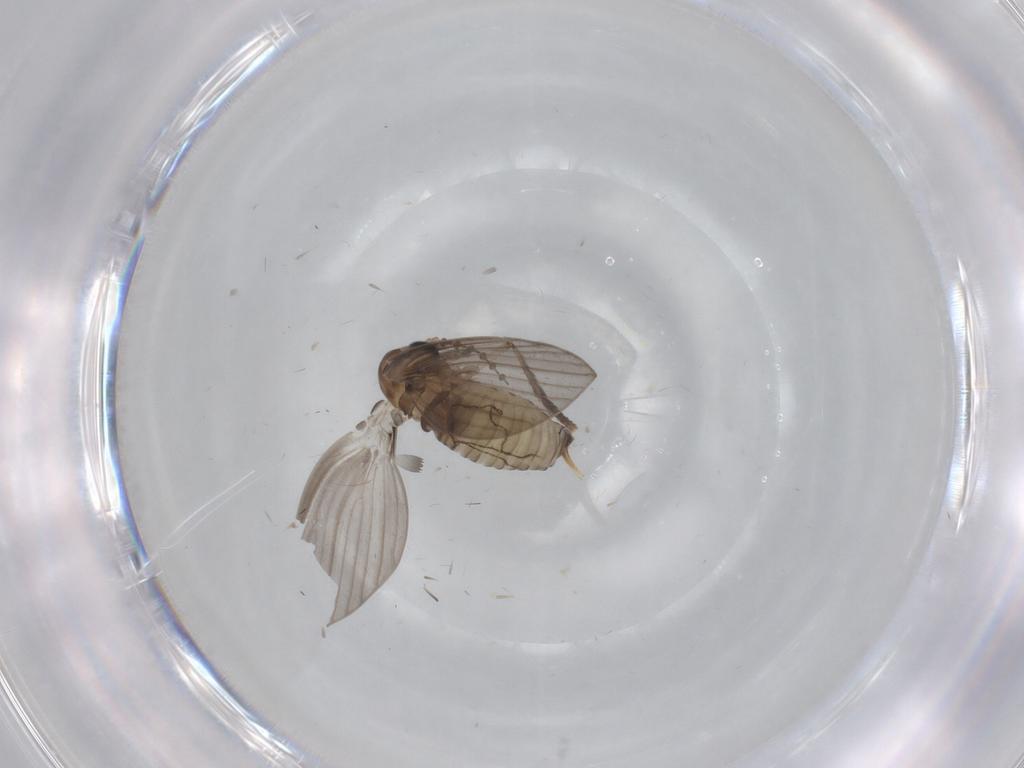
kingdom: Animalia
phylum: Arthropoda
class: Insecta
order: Diptera
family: Psychodidae
